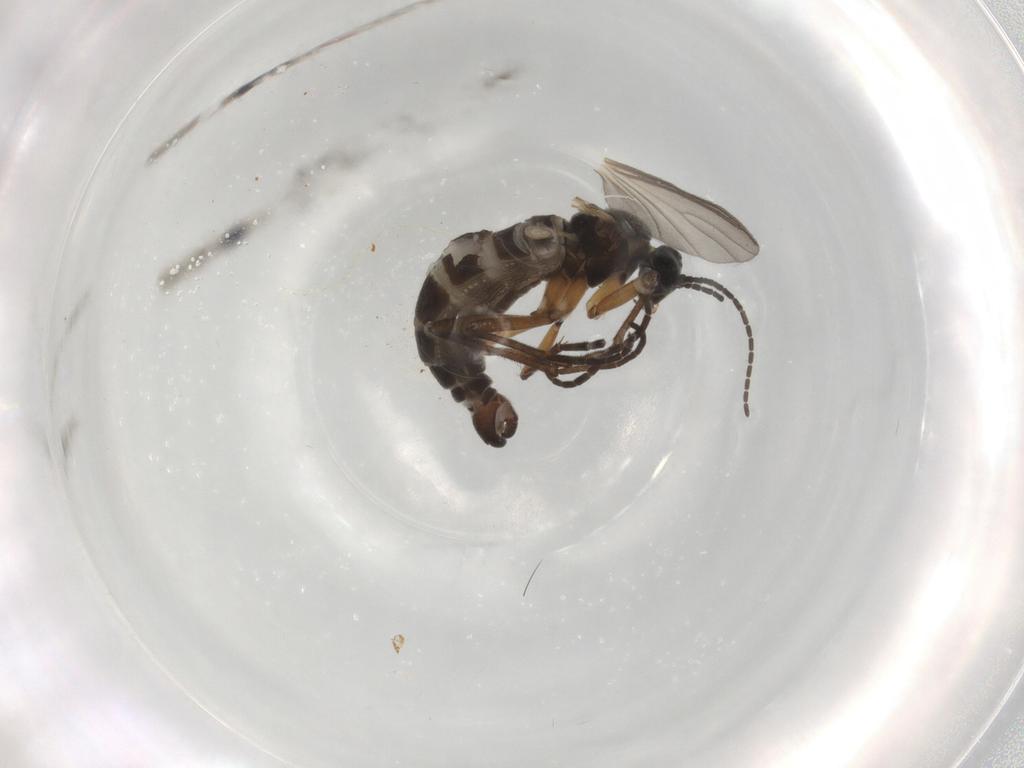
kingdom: Animalia
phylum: Arthropoda
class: Insecta
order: Diptera
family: Sciaridae
